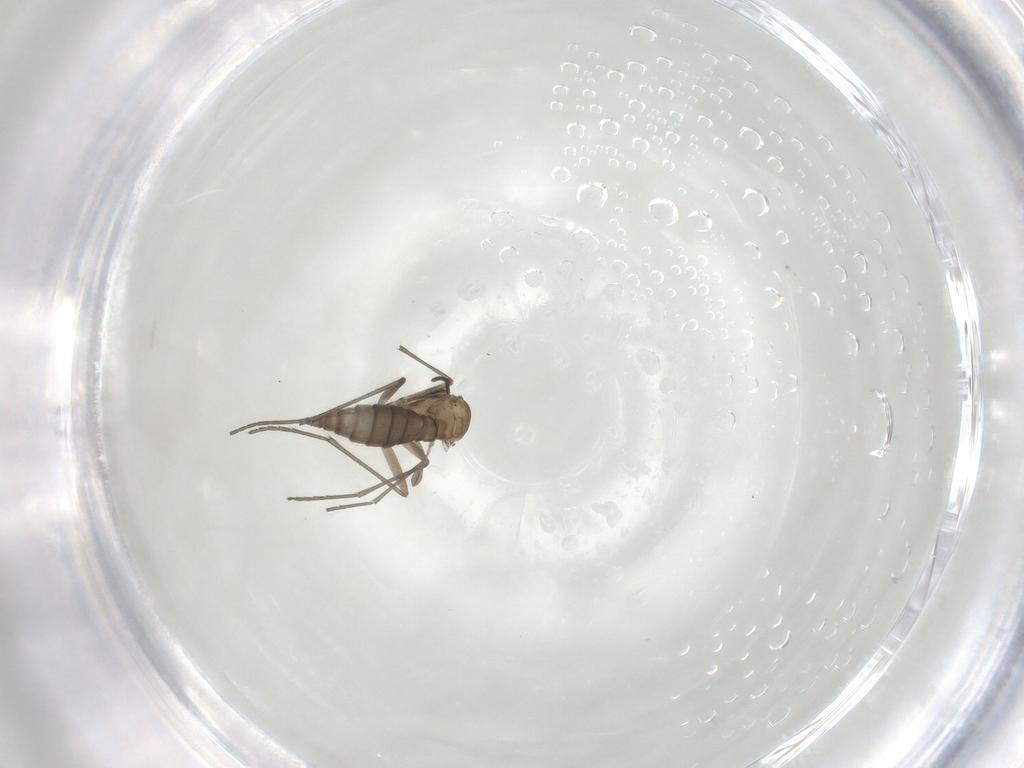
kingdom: Animalia
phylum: Arthropoda
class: Insecta
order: Diptera
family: Sciaridae
